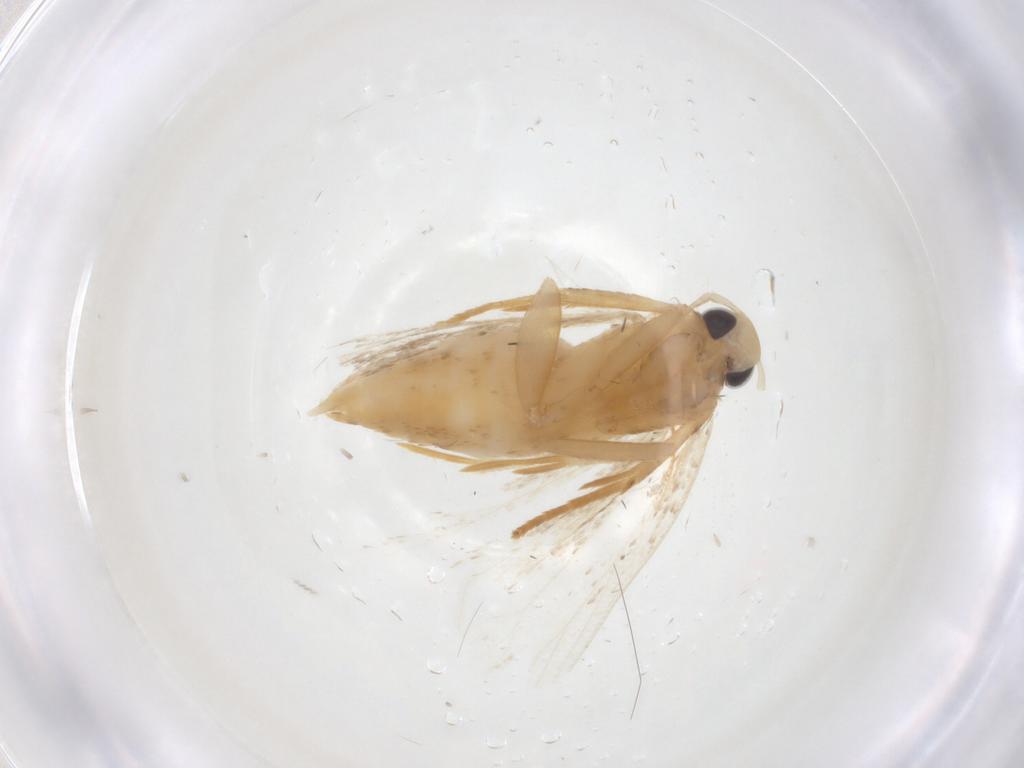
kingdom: Animalia
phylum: Arthropoda
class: Insecta
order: Lepidoptera
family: Gelechiidae
